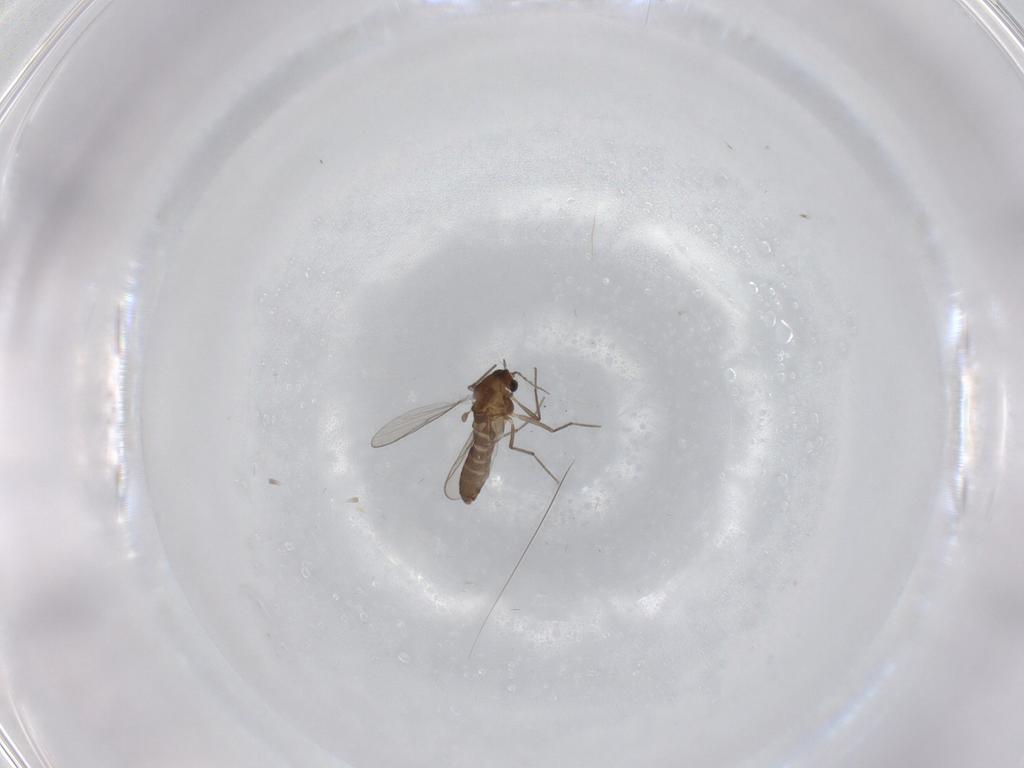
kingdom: Animalia
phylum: Arthropoda
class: Insecta
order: Diptera
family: Chironomidae
